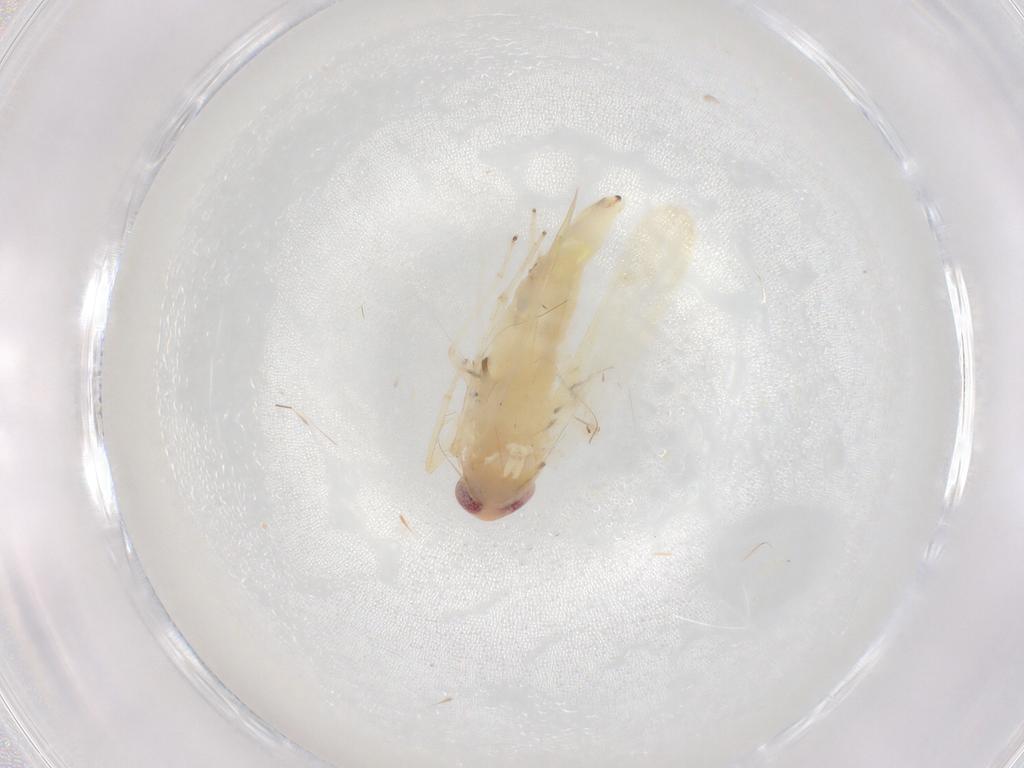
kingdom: Animalia
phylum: Arthropoda
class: Insecta
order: Hemiptera
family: Cicadellidae
